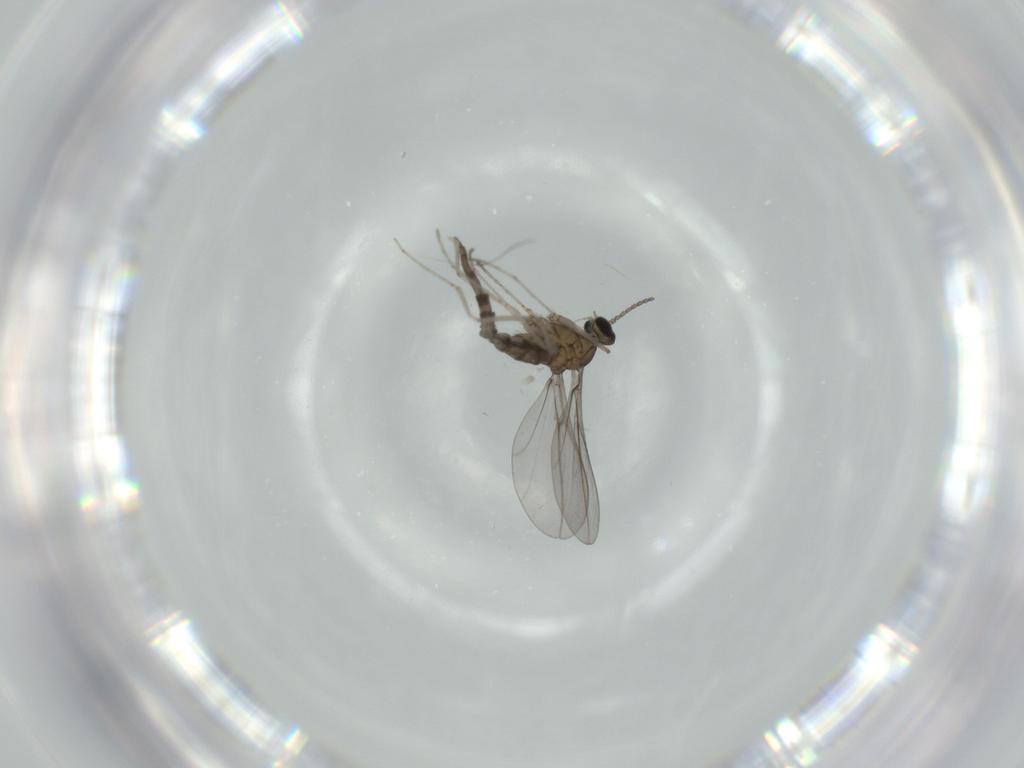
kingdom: Animalia
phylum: Arthropoda
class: Insecta
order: Diptera
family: Cecidomyiidae
